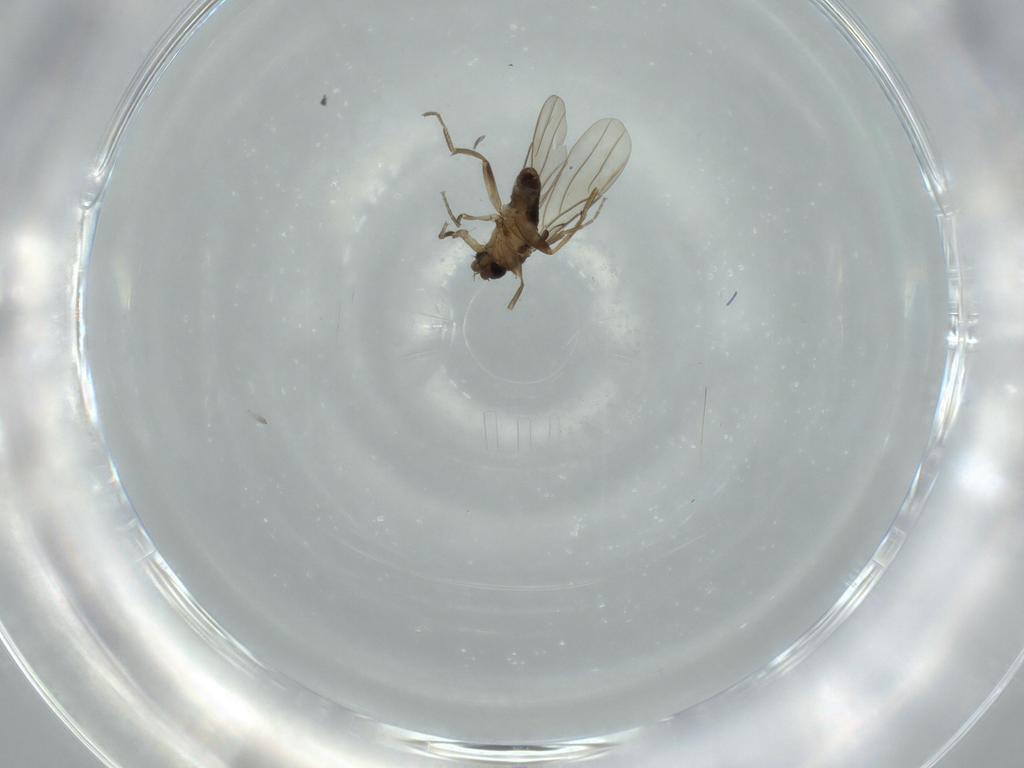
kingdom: Animalia
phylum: Arthropoda
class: Insecta
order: Diptera
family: Phoridae
